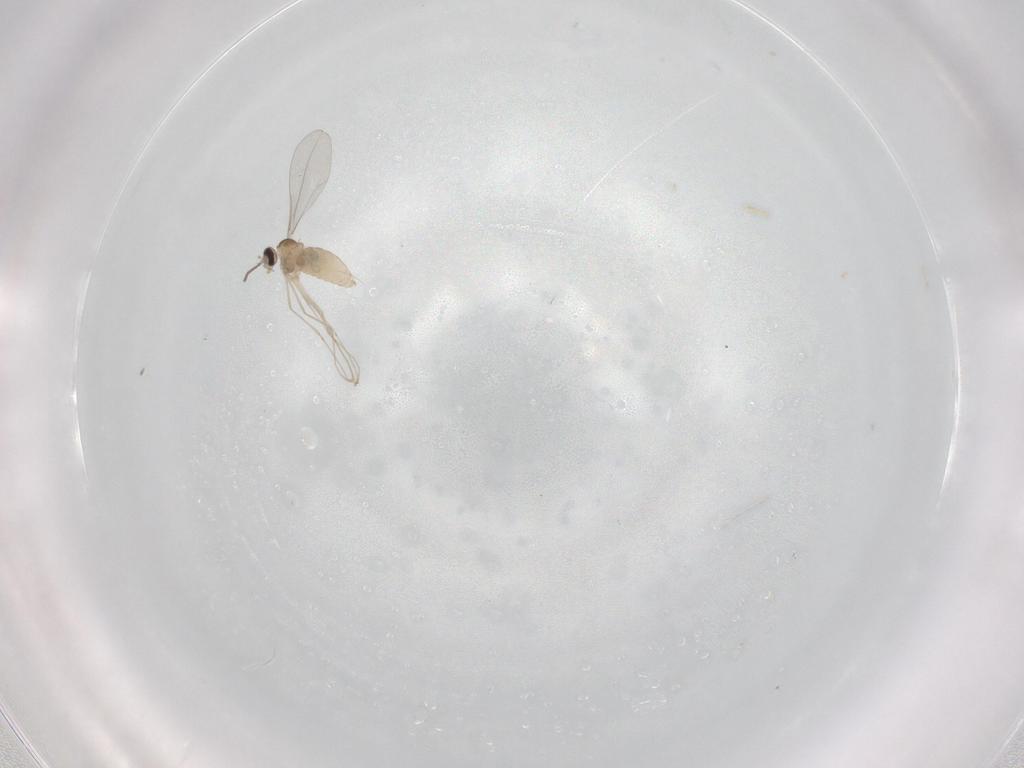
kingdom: Animalia
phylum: Arthropoda
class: Insecta
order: Diptera
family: Cecidomyiidae
